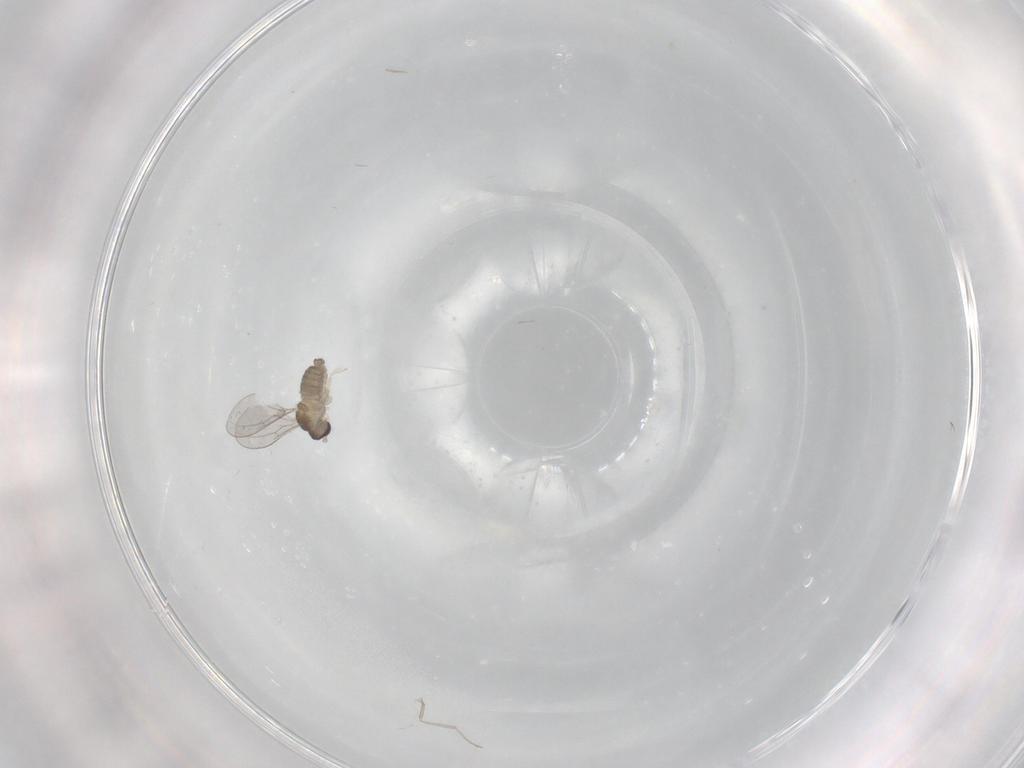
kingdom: Animalia
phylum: Arthropoda
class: Insecta
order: Diptera
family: Cecidomyiidae
